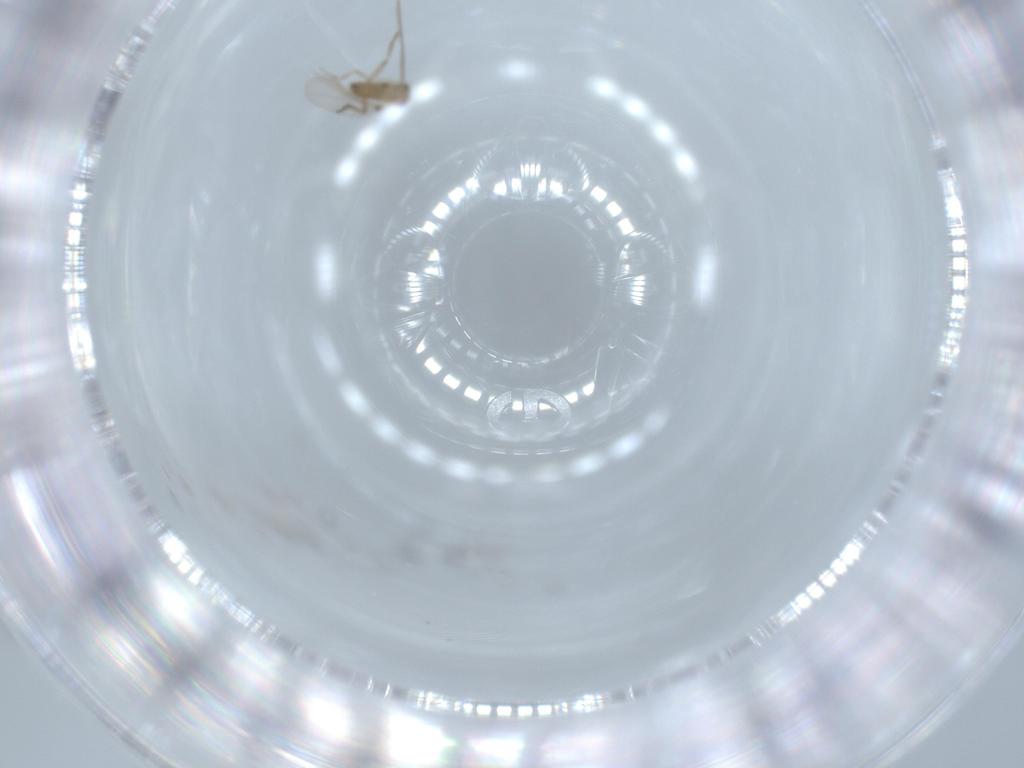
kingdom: Animalia
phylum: Arthropoda
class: Insecta
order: Diptera
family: Phoridae
